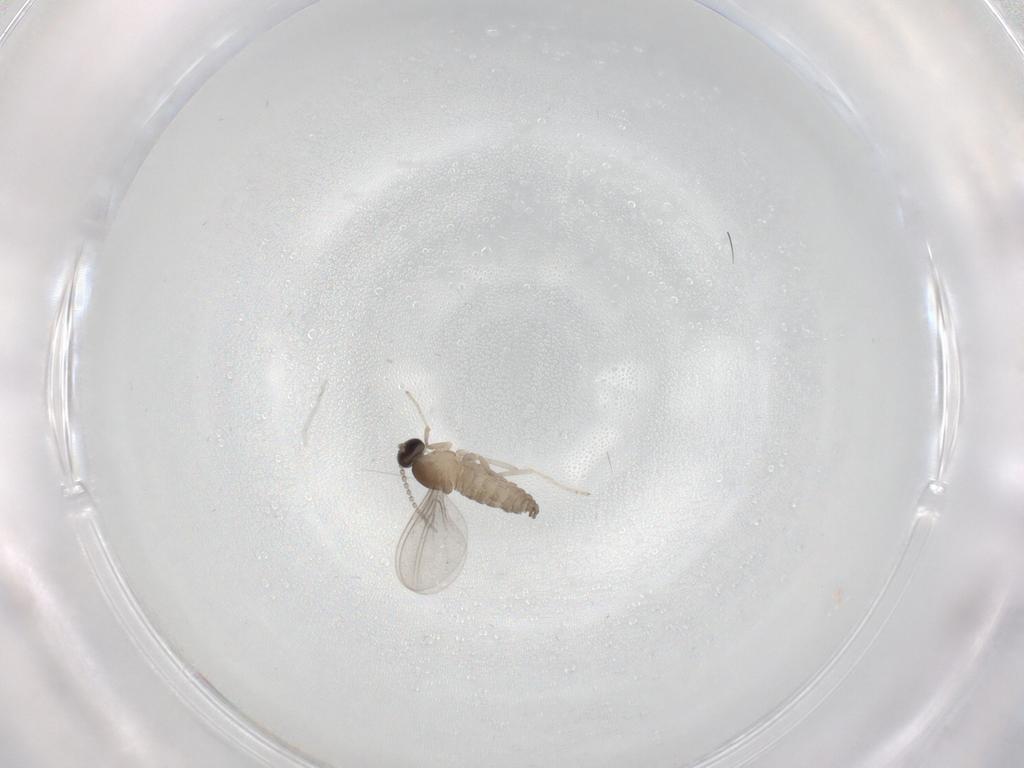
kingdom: Animalia
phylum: Arthropoda
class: Insecta
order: Diptera
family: Cecidomyiidae
